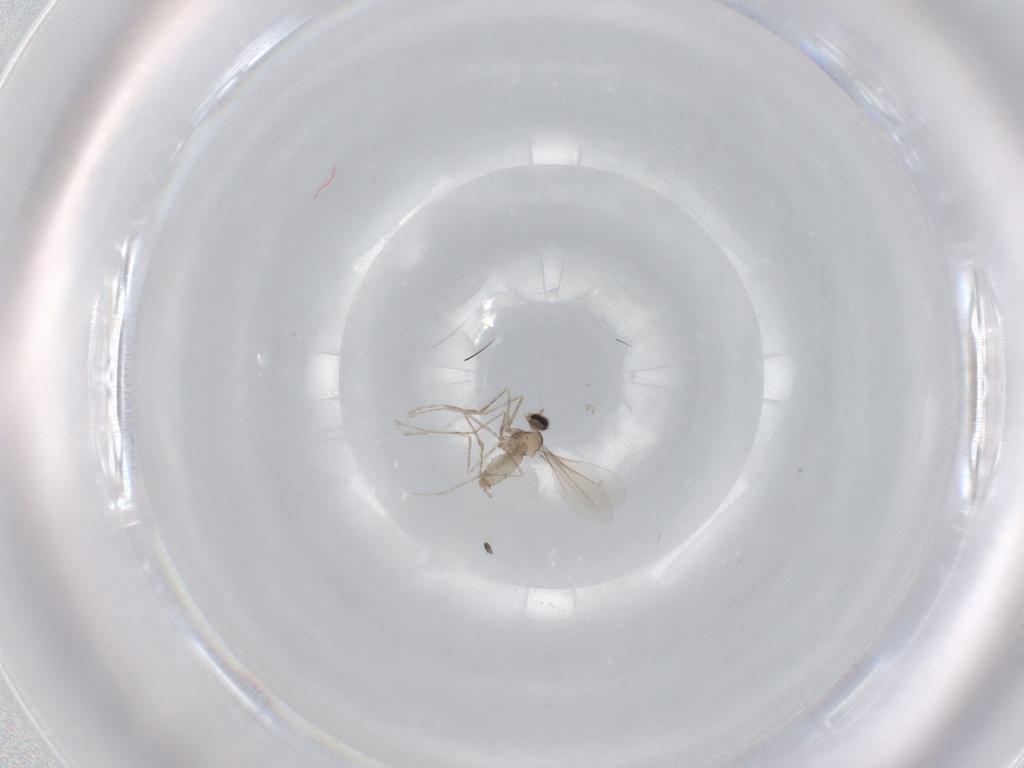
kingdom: Animalia
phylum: Arthropoda
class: Insecta
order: Diptera
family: Cecidomyiidae
